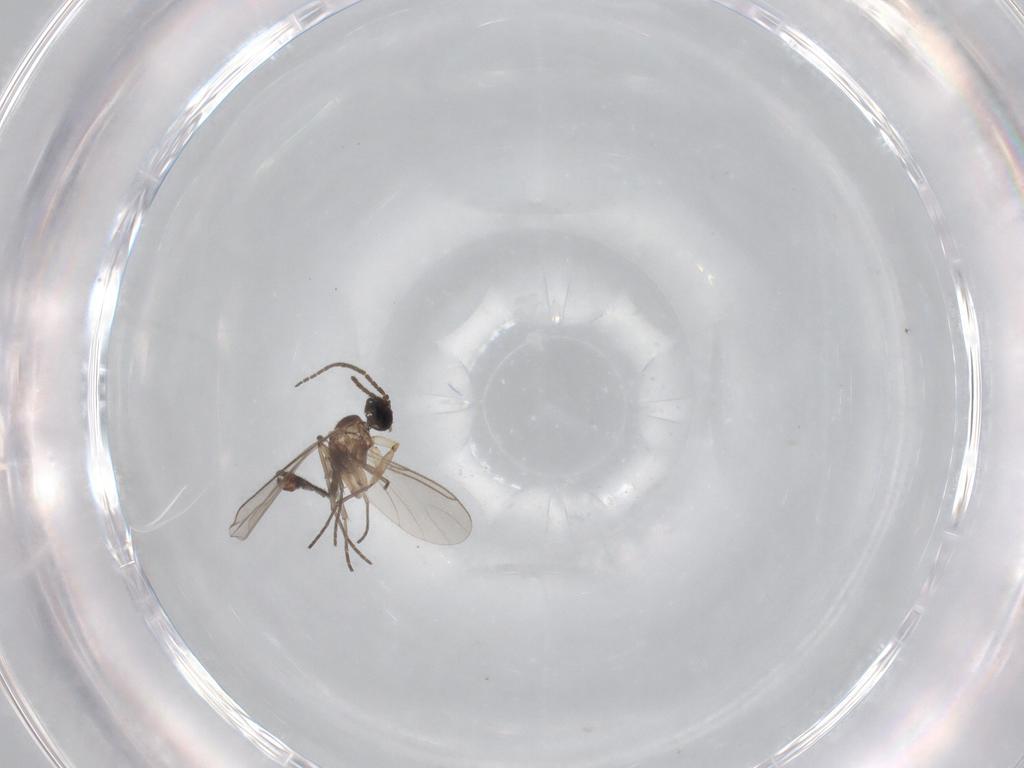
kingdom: Animalia
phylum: Arthropoda
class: Insecta
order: Diptera
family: Sciaridae
